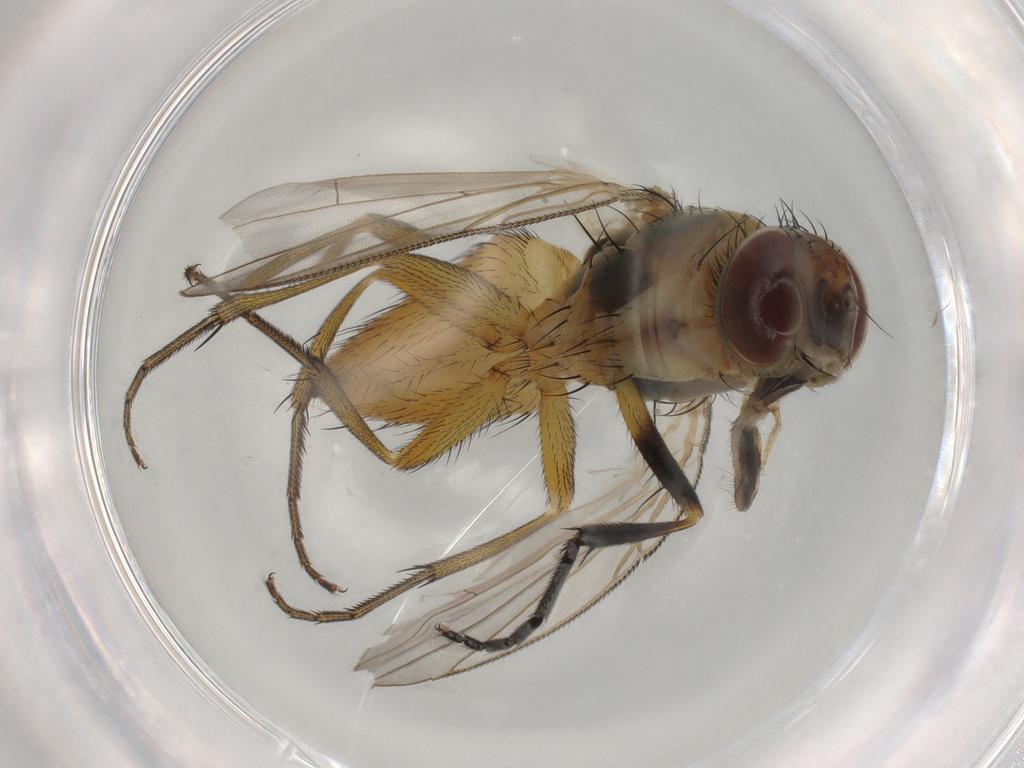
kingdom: Animalia
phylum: Arthropoda
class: Insecta
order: Diptera
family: Muscidae
